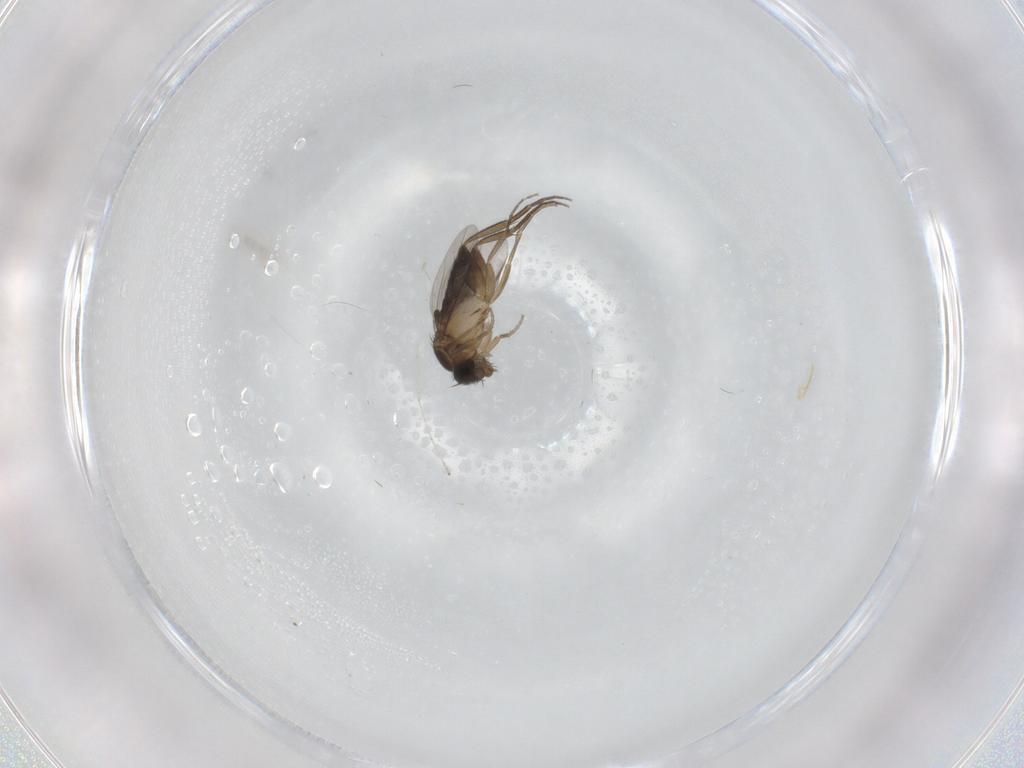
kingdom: Animalia
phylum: Arthropoda
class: Insecta
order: Diptera
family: Phoridae
